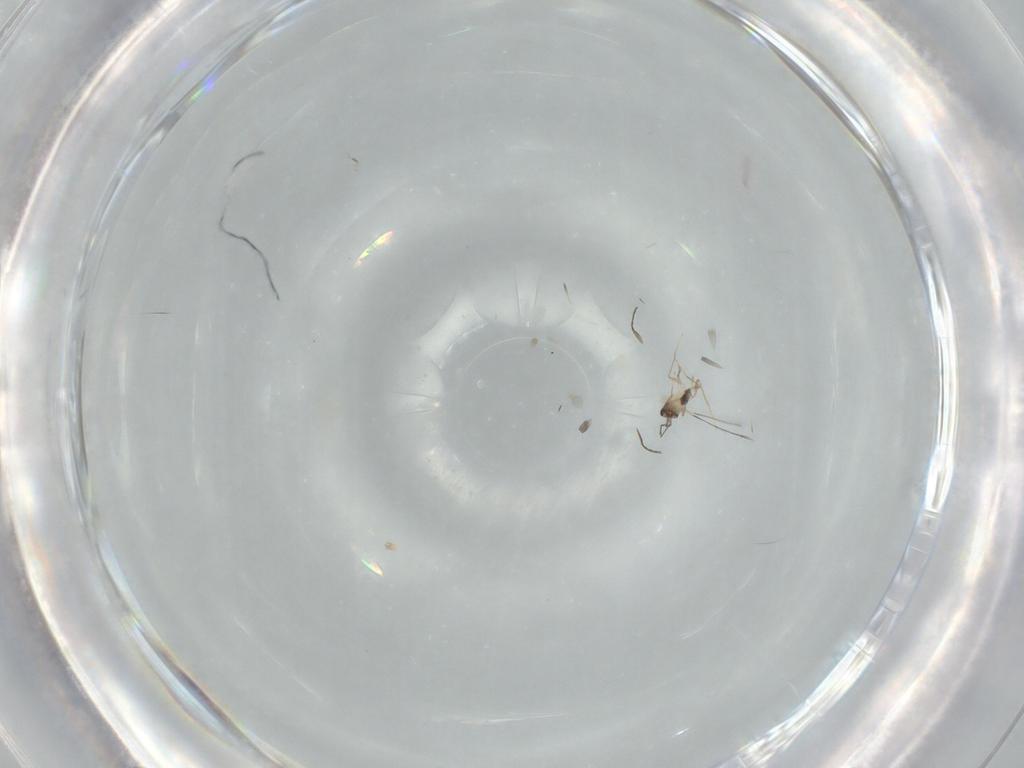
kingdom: Animalia
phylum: Arthropoda
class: Insecta
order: Hymenoptera
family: Mymaridae
